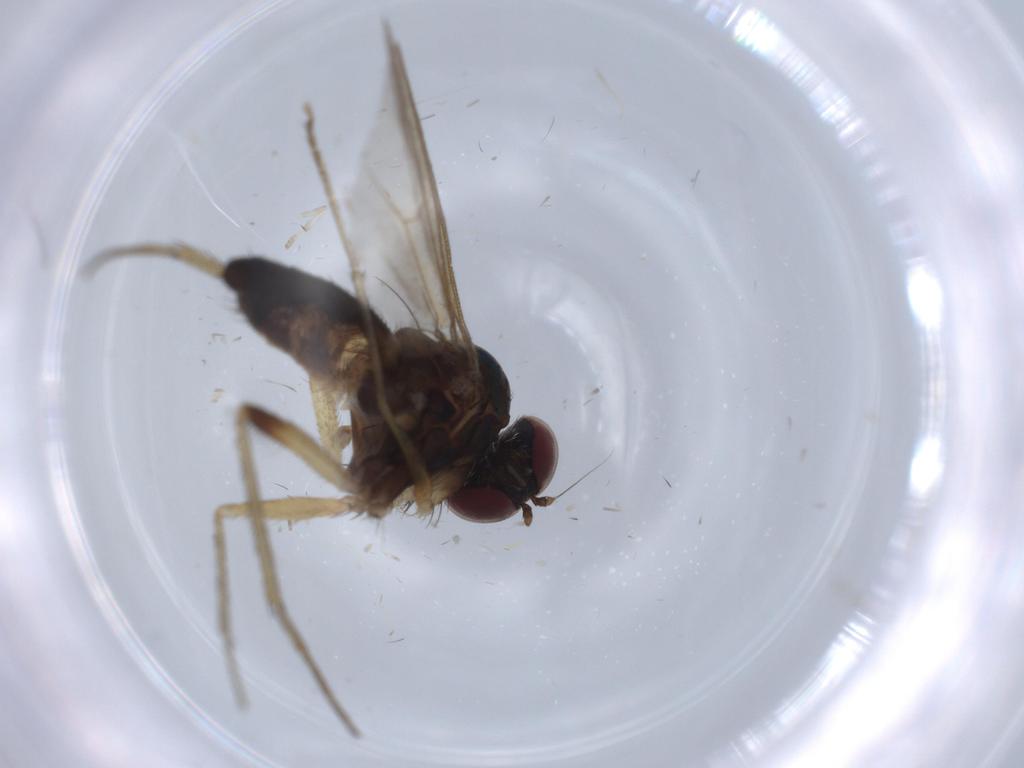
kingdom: Animalia
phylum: Arthropoda
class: Insecta
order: Diptera
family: Dolichopodidae
